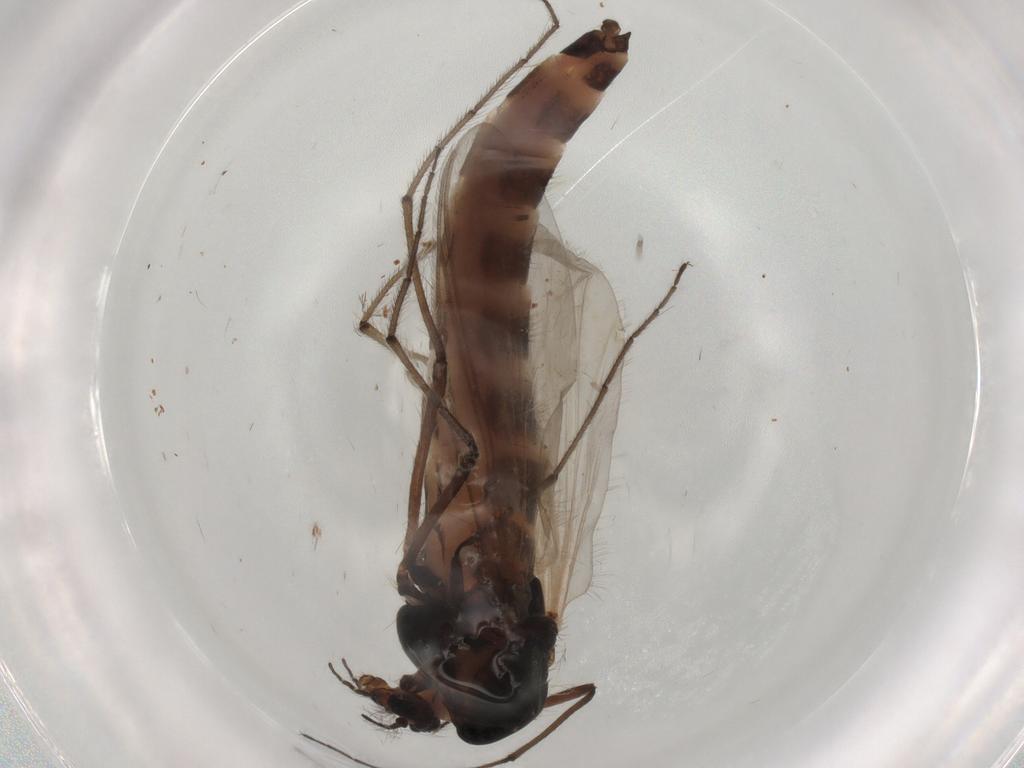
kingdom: Animalia
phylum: Arthropoda
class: Insecta
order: Diptera
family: Chironomidae
